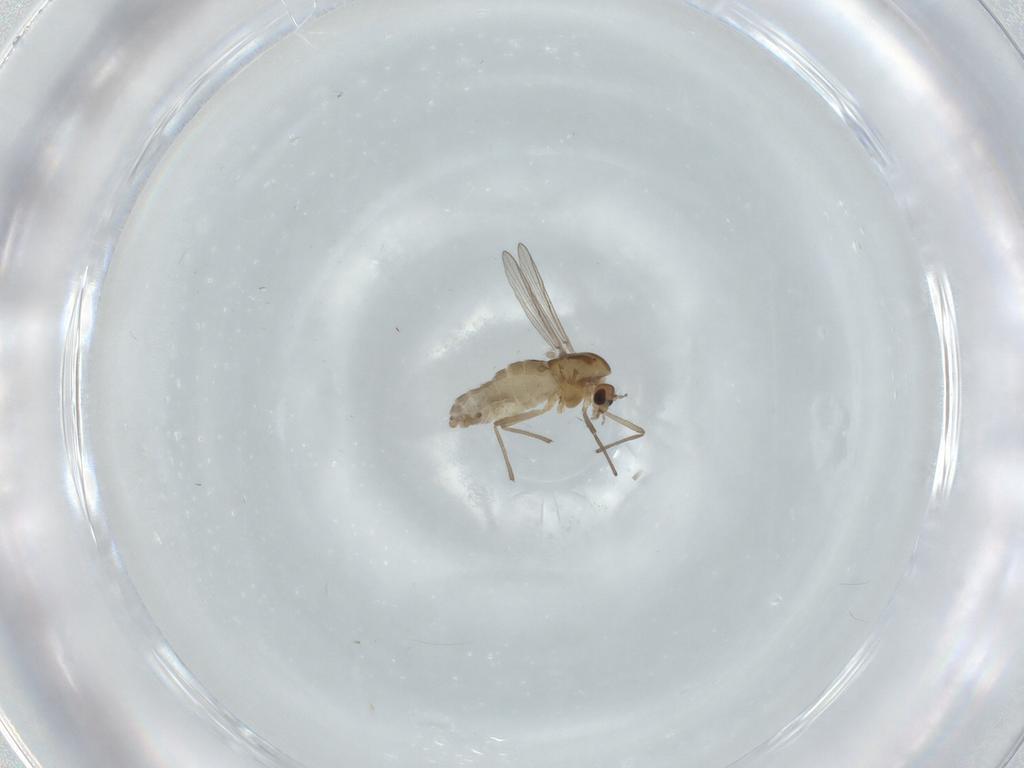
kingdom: Animalia
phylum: Arthropoda
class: Insecta
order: Diptera
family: Chironomidae
